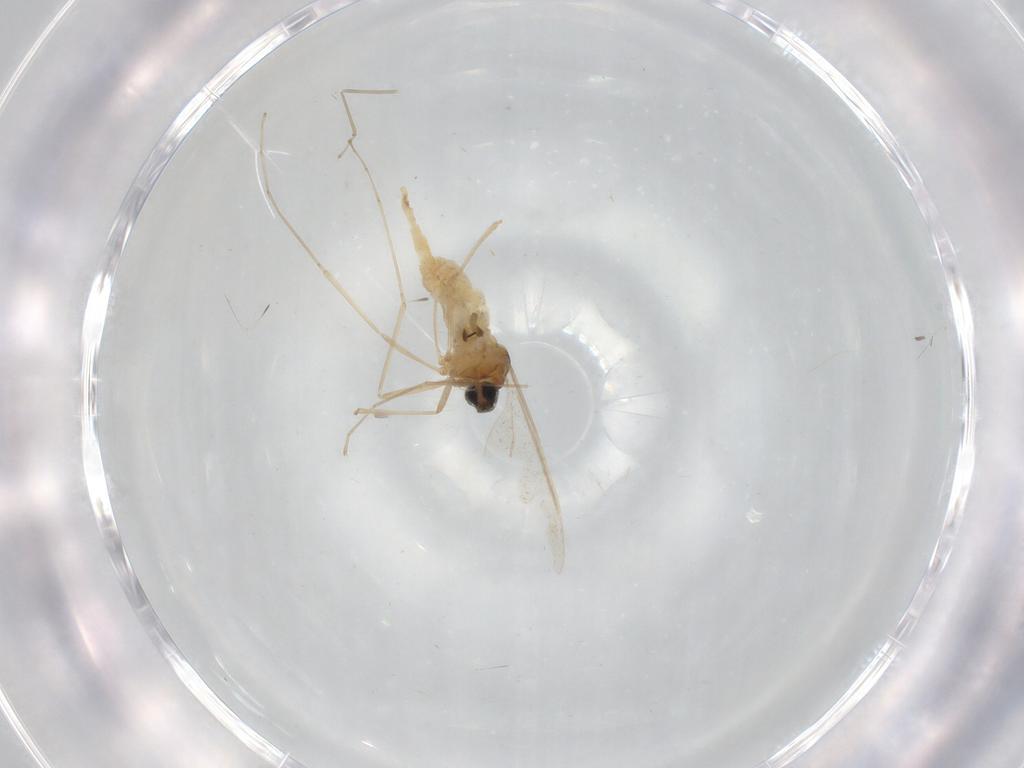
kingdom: Animalia
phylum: Arthropoda
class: Insecta
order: Diptera
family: Cecidomyiidae
